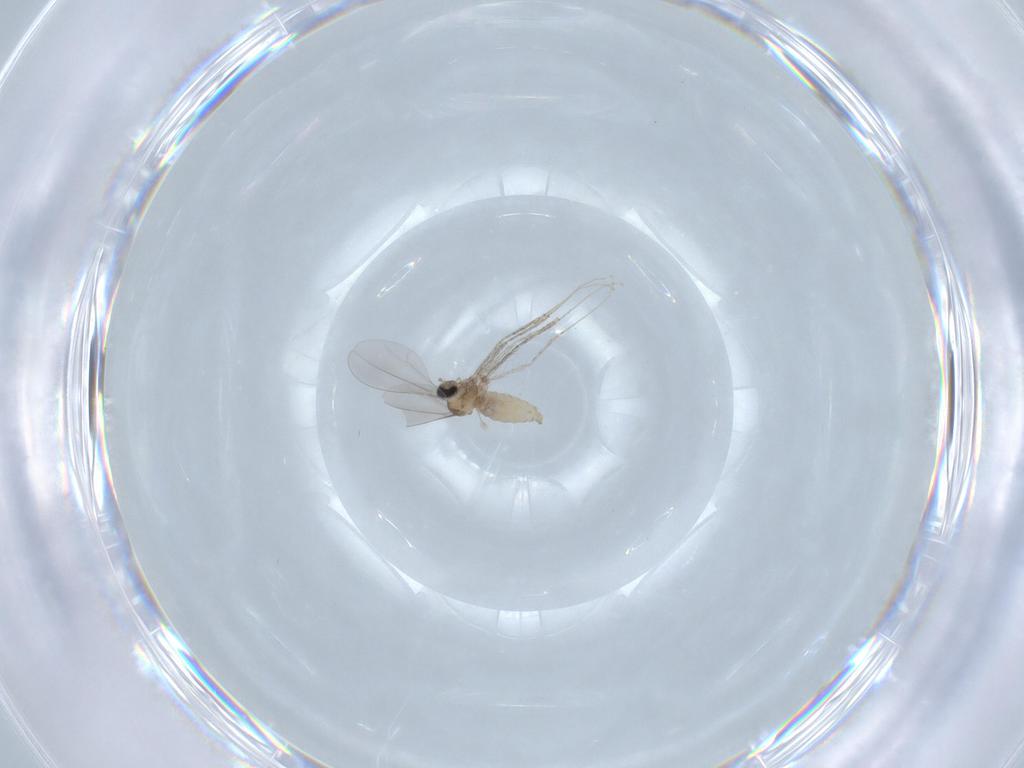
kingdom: Animalia
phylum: Arthropoda
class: Insecta
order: Diptera
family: Cecidomyiidae
